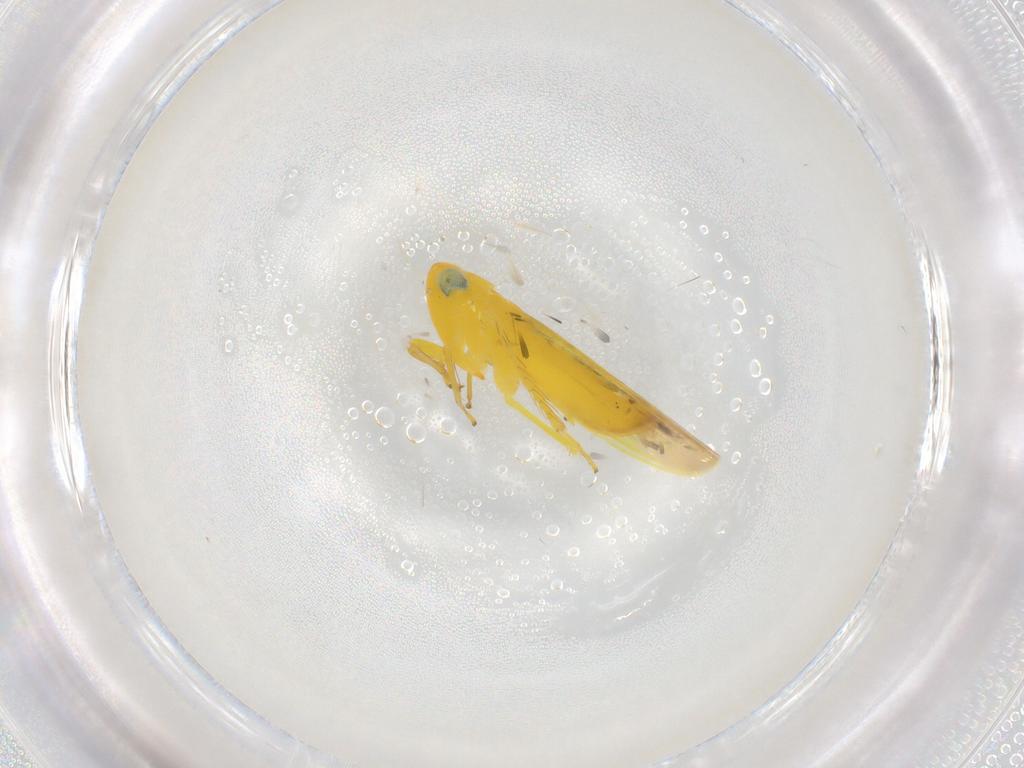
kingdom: Animalia
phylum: Arthropoda
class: Insecta
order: Hemiptera
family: Cicadellidae
